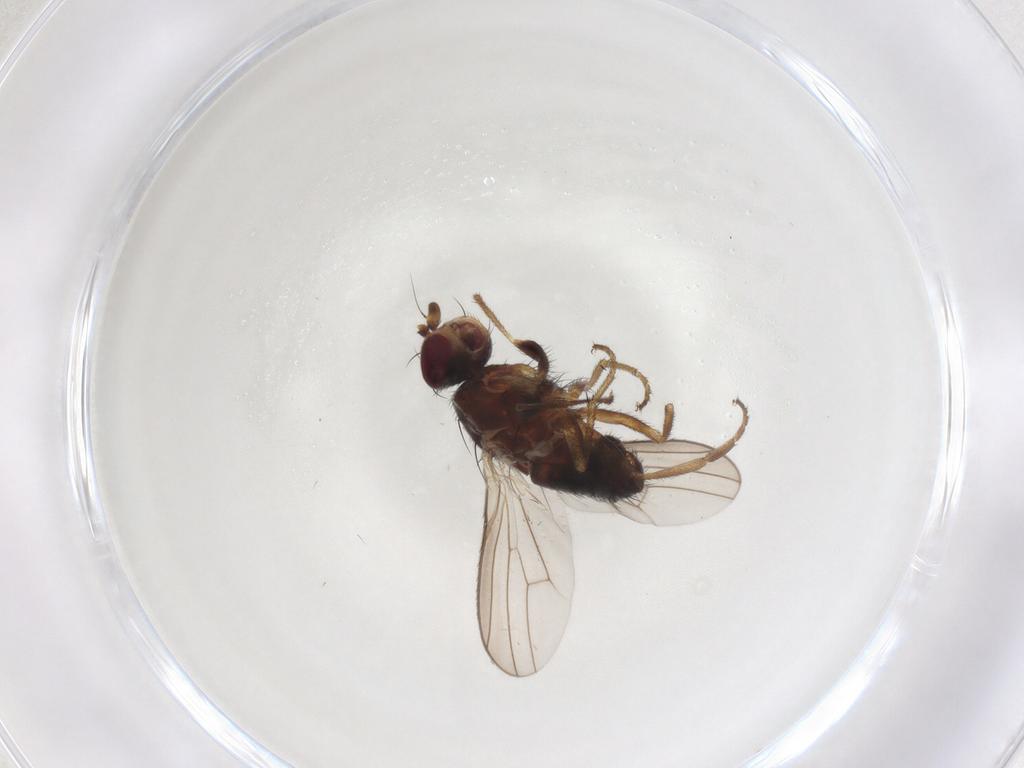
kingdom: Animalia
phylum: Arthropoda
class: Insecta
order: Diptera
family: Heleomyzidae
